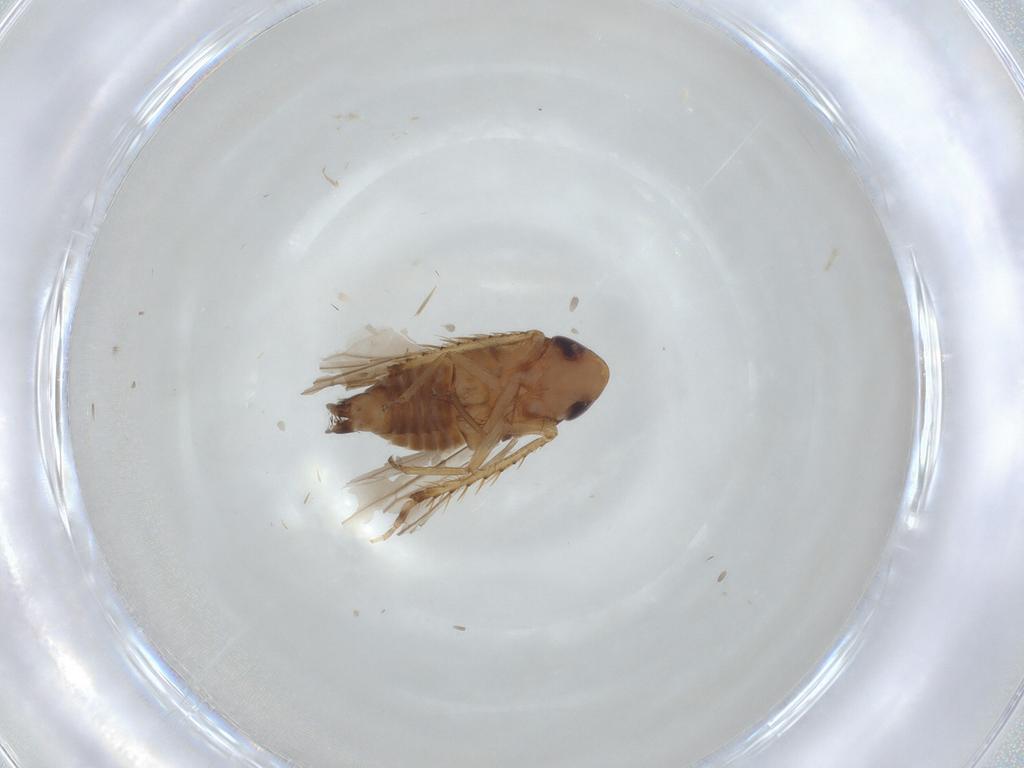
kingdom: Animalia
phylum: Arthropoda
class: Insecta
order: Hemiptera
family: Cicadellidae
